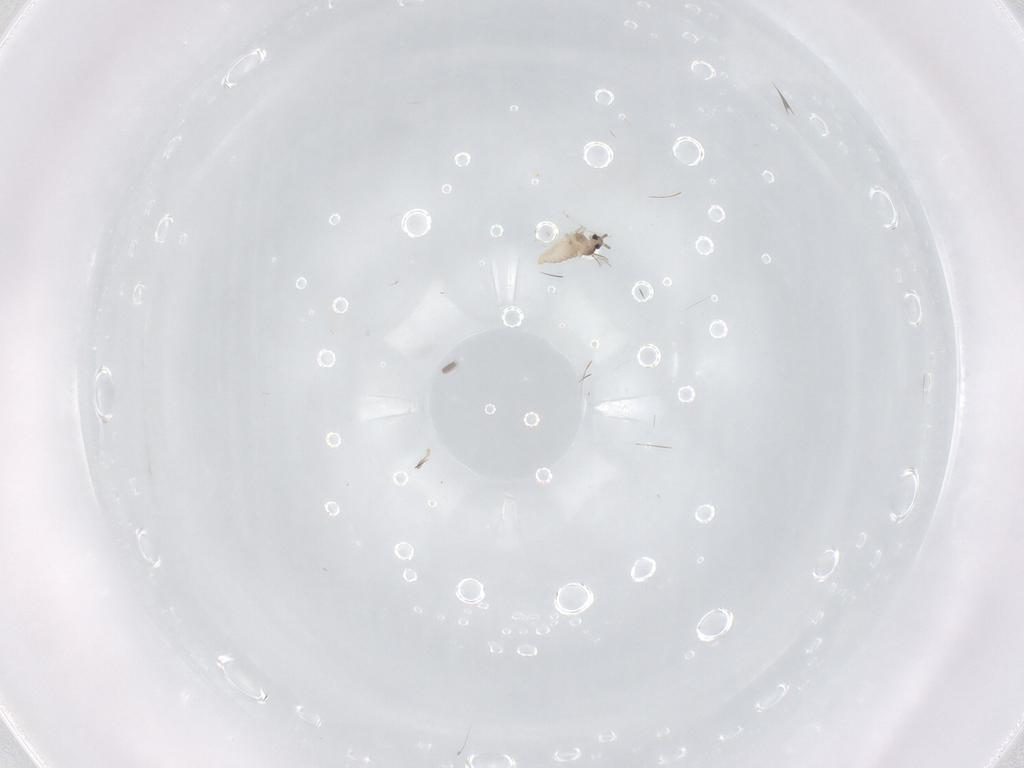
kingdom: Animalia
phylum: Arthropoda
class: Insecta
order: Diptera
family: Cecidomyiidae
